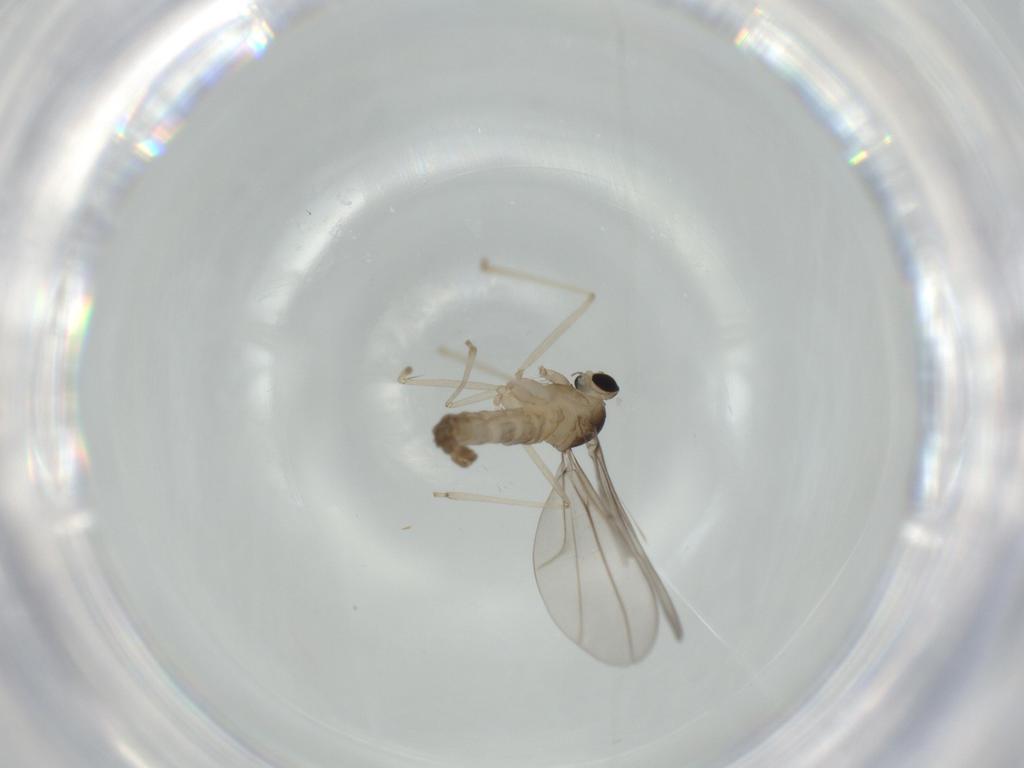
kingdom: Animalia
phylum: Arthropoda
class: Insecta
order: Diptera
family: Cecidomyiidae
